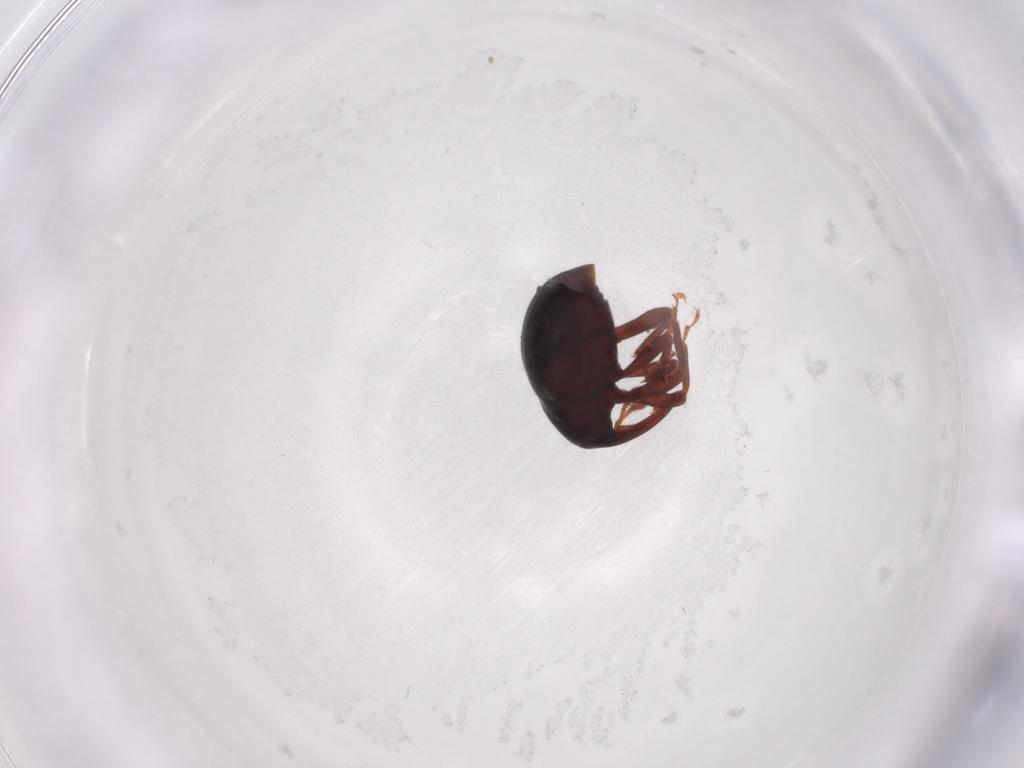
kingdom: Animalia
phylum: Arthropoda
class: Insecta
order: Coleoptera
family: Curculionidae
